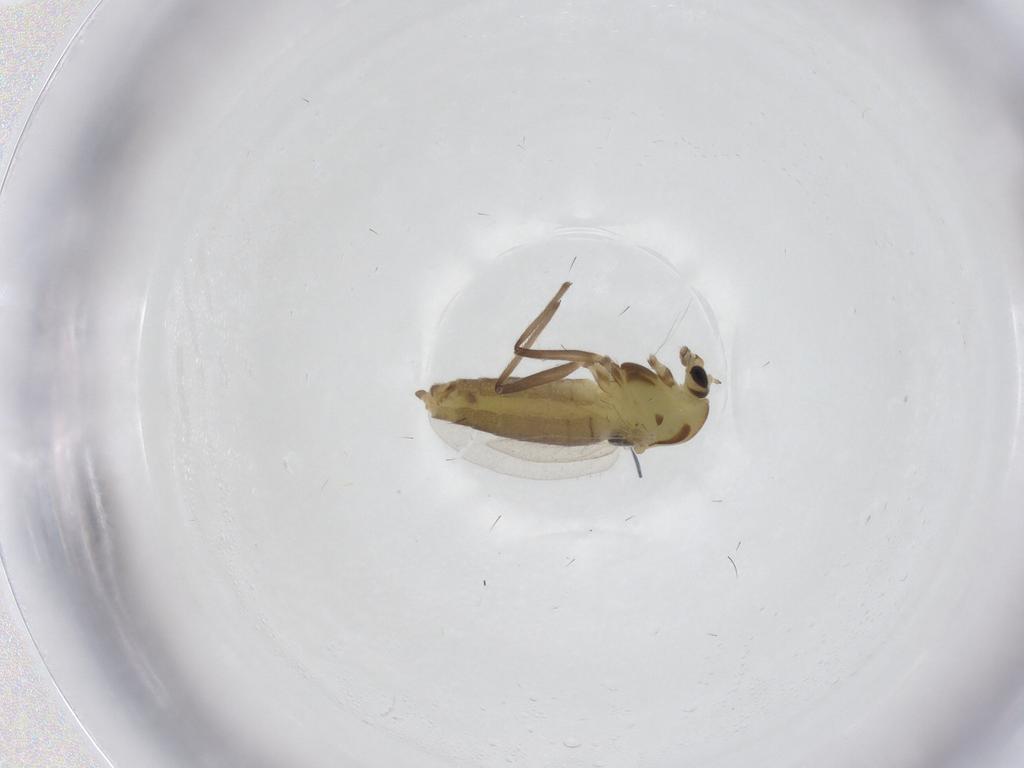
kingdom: Animalia
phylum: Arthropoda
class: Insecta
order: Diptera
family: Chironomidae
